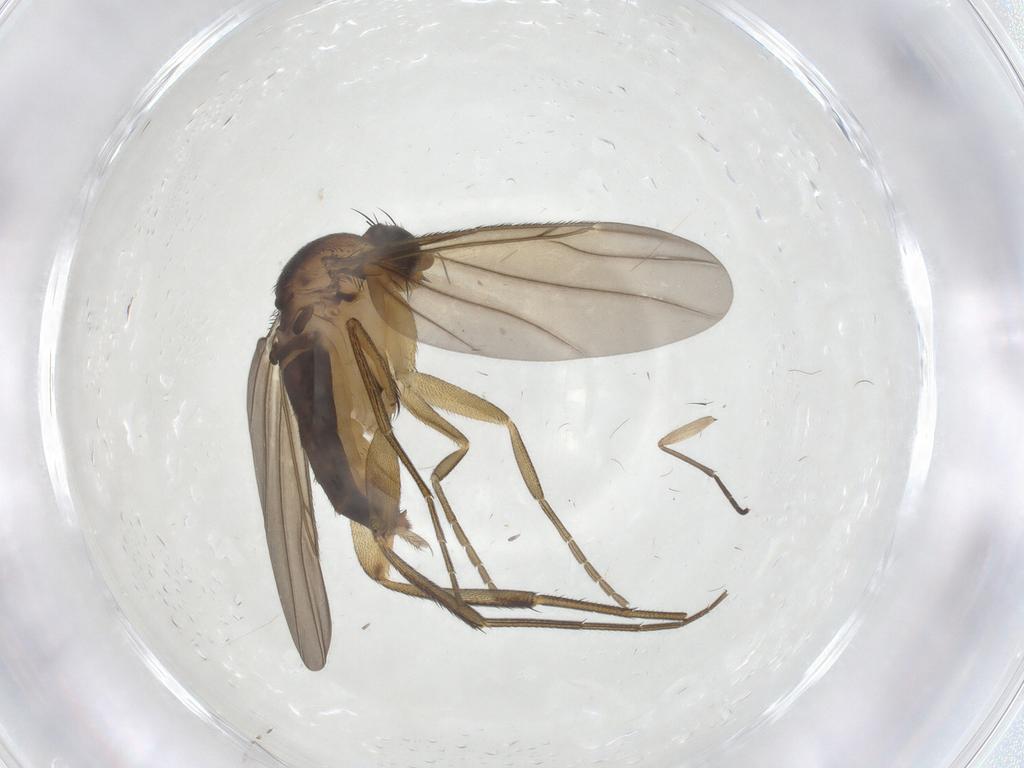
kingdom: Animalia
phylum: Arthropoda
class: Insecta
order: Diptera
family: Phoridae
